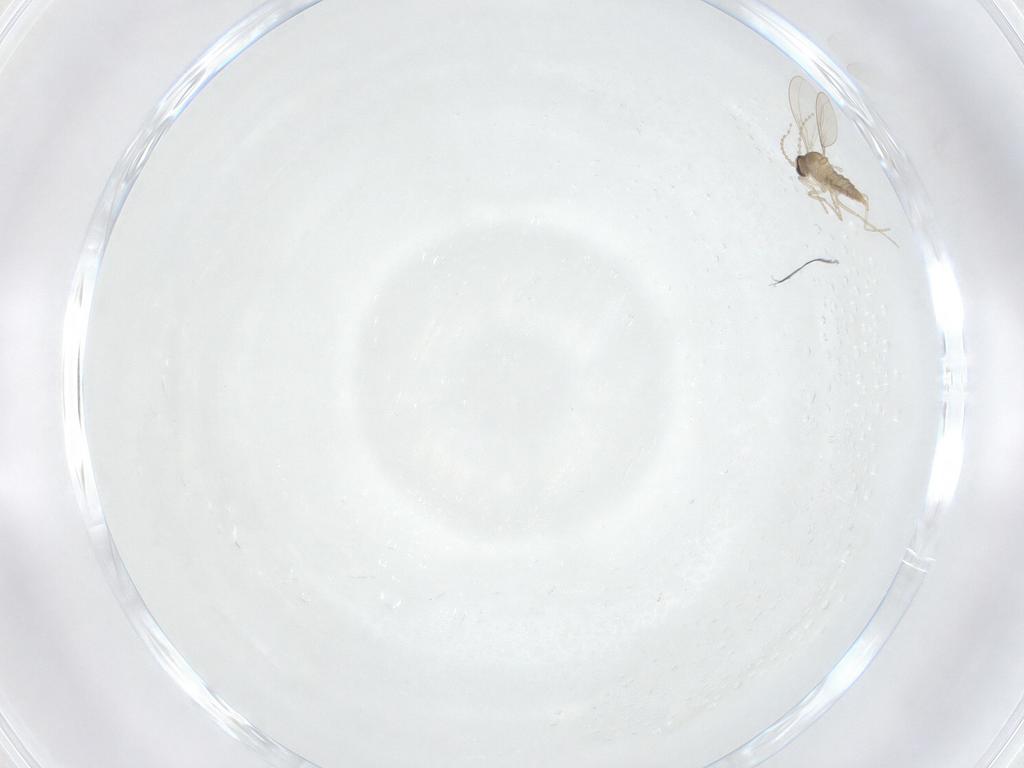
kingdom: Animalia
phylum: Arthropoda
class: Insecta
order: Diptera
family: Cecidomyiidae
